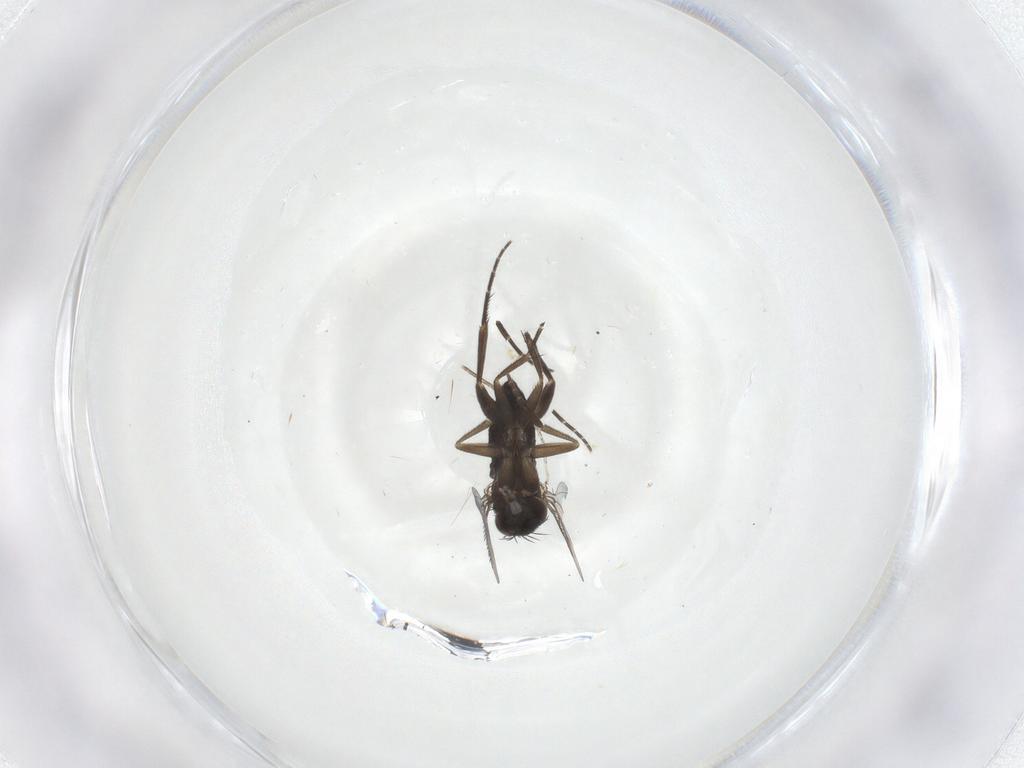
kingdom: Animalia
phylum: Arthropoda
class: Insecta
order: Diptera
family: Phoridae
